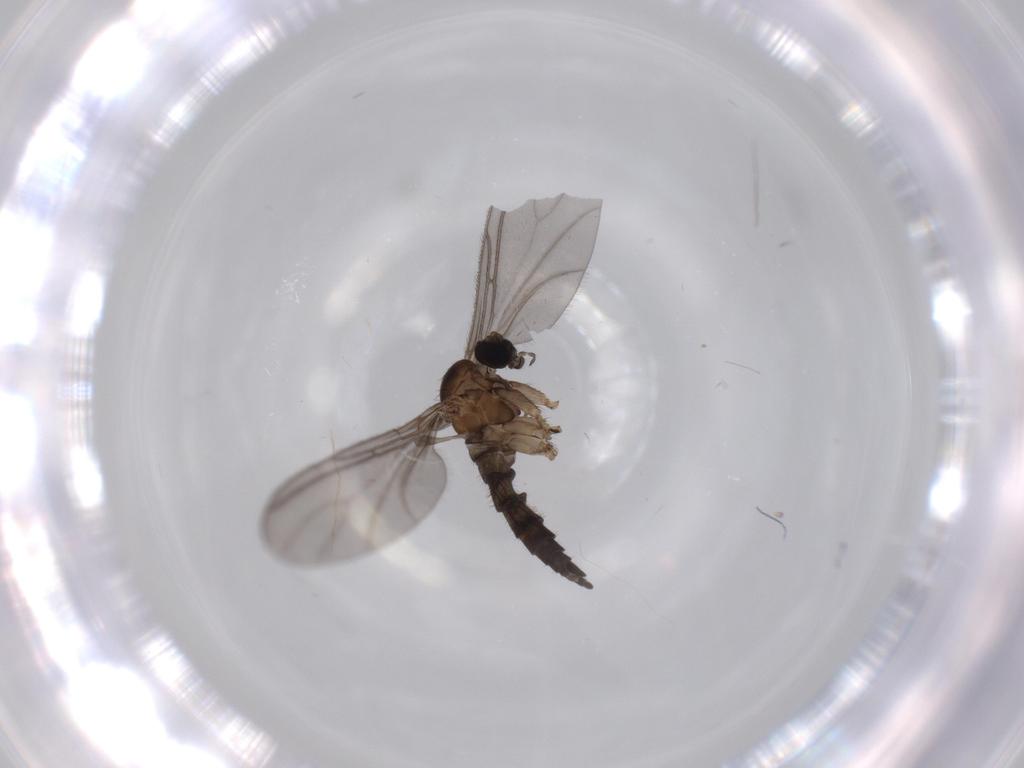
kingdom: Animalia
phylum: Arthropoda
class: Insecta
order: Diptera
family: Sciaridae
